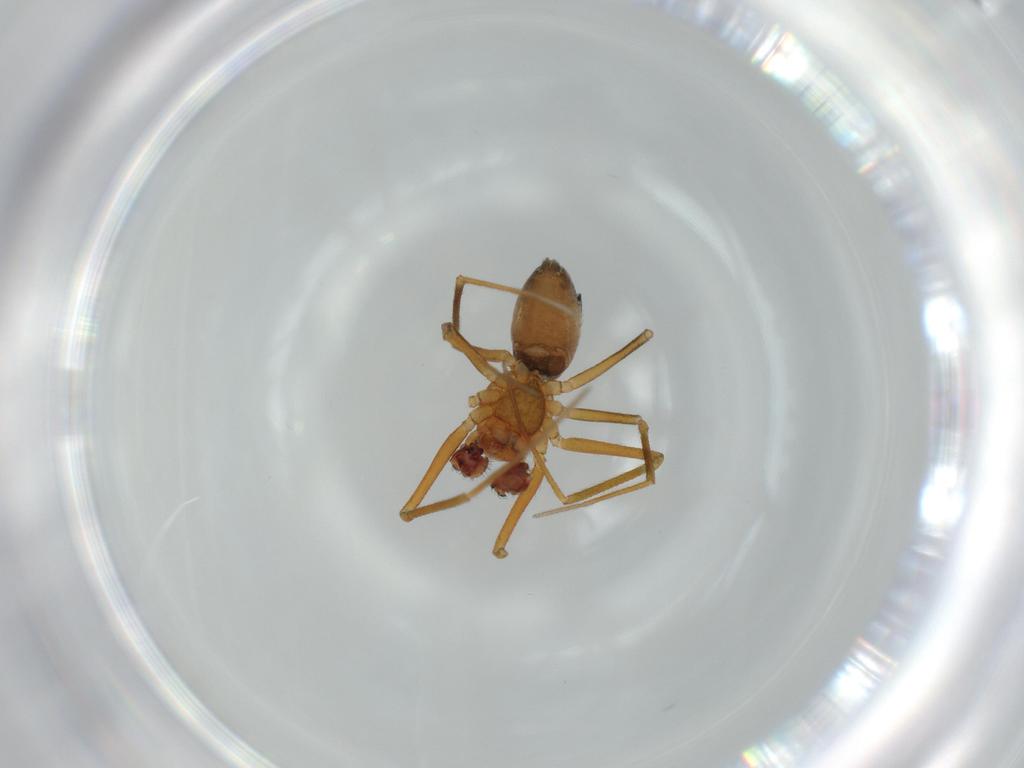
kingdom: Animalia
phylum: Arthropoda
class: Arachnida
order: Araneae
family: Linyphiidae
